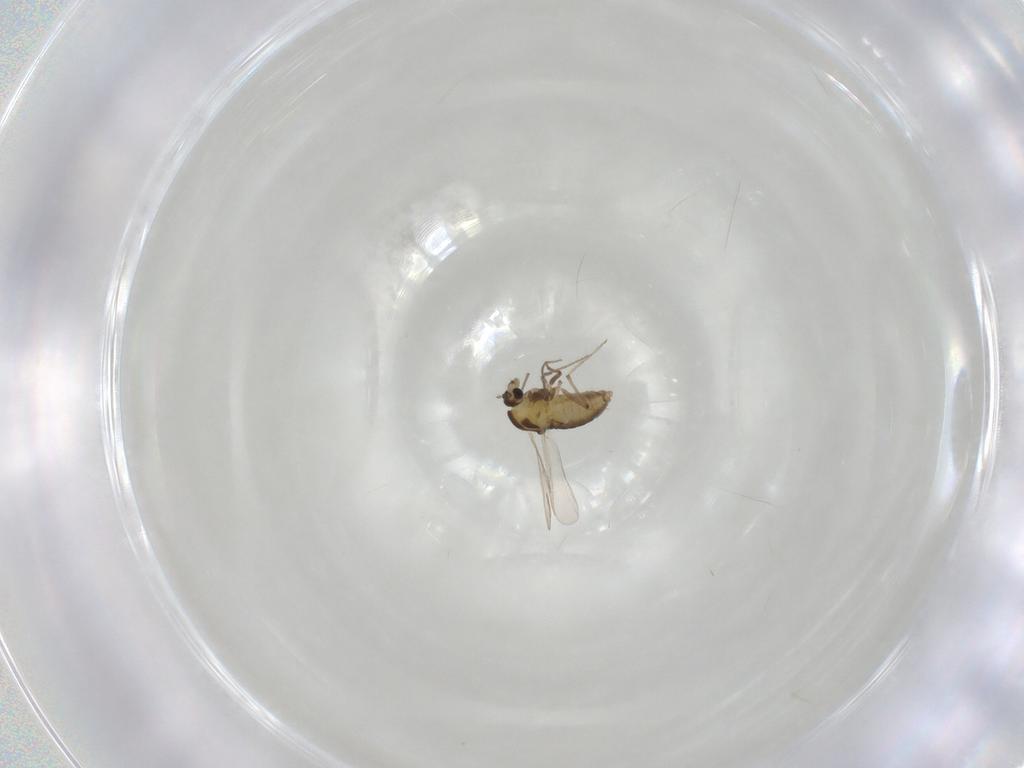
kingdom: Animalia
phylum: Arthropoda
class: Insecta
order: Diptera
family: Chironomidae
